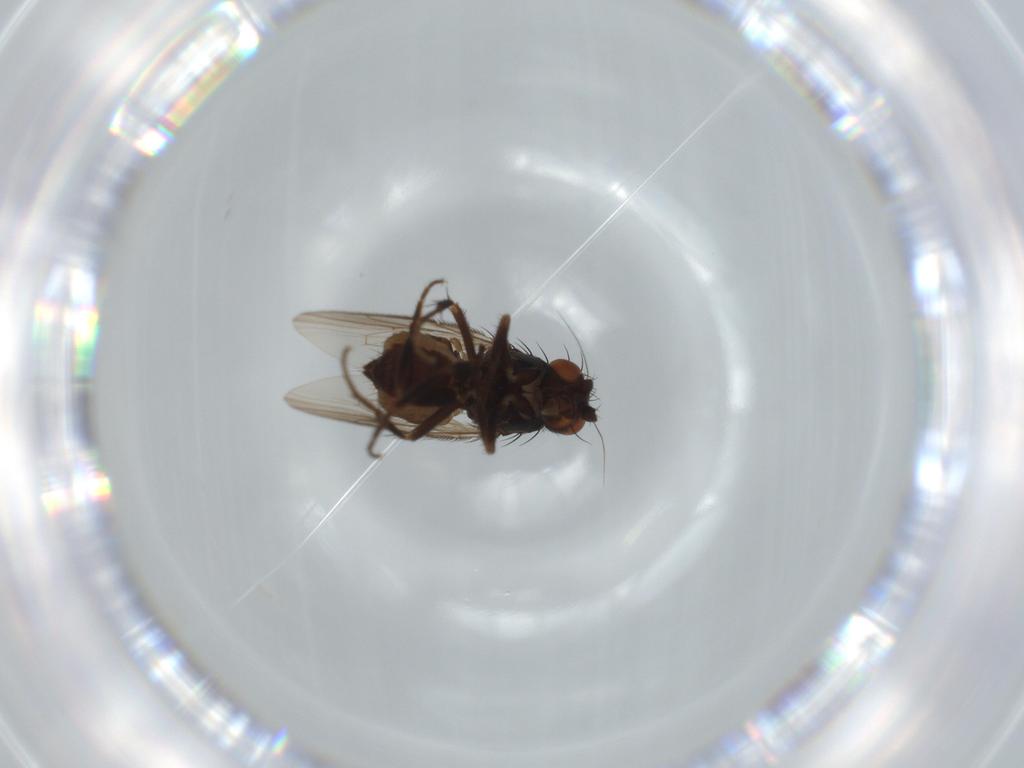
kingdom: Animalia
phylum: Arthropoda
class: Insecta
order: Diptera
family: Sphaeroceridae
